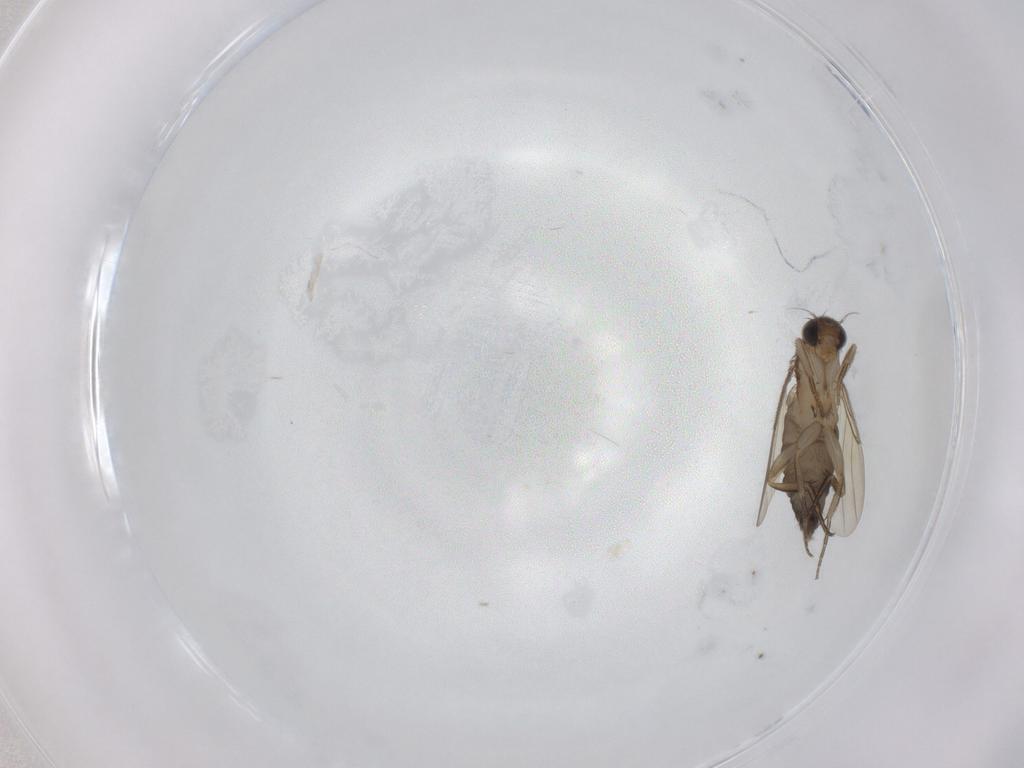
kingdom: Animalia
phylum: Arthropoda
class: Insecta
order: Diptera
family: Phoridae
